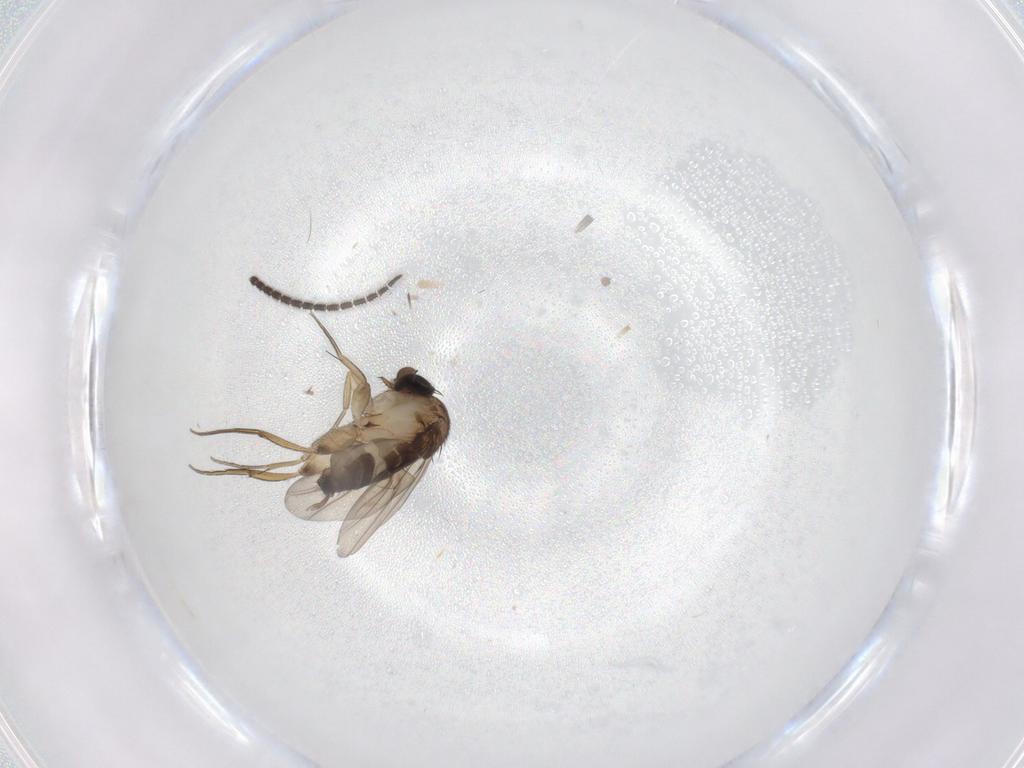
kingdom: Animalia
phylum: Arthropoda
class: Insecta
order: Diptera
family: Phoridae
